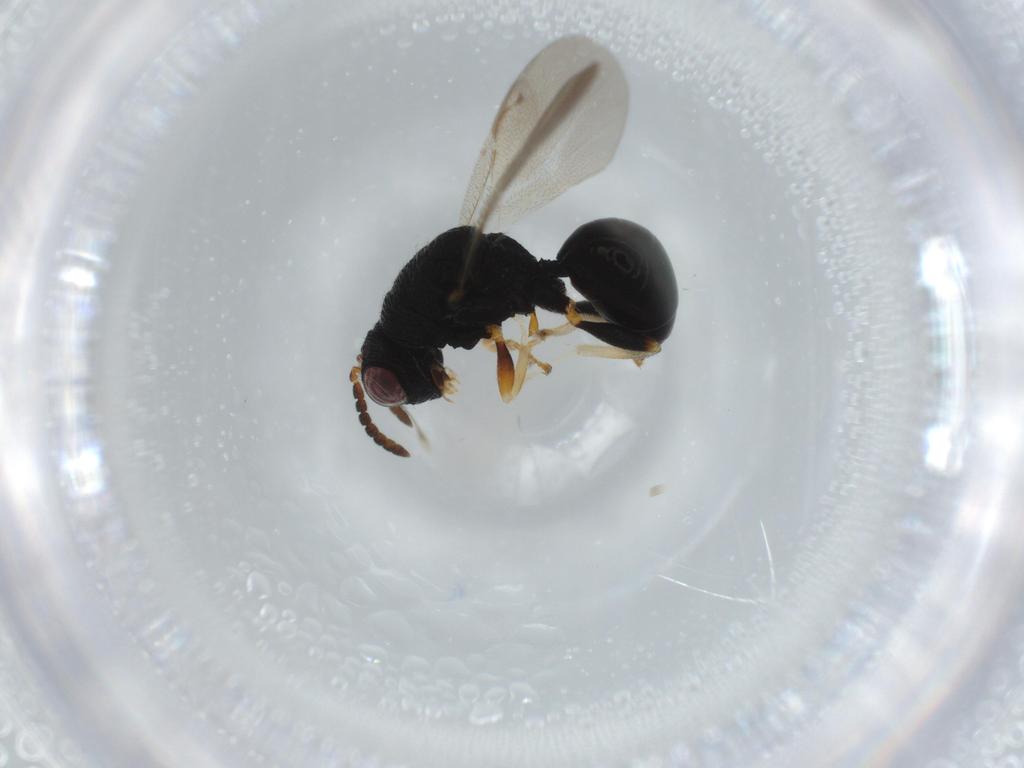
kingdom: Animalia
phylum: Arthropoda
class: Insecta
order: Hymenoptera
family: Bethylidae
